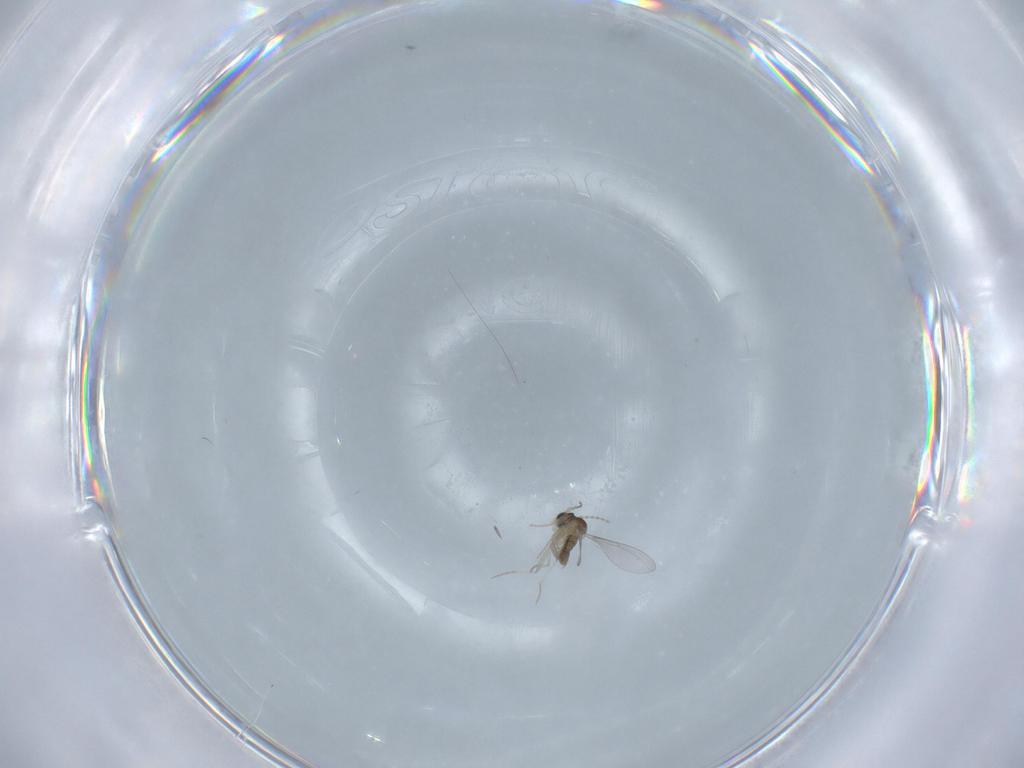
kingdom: Animalia
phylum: Arthropoda
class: Insecta
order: Diptera
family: Cecidomyiidae
